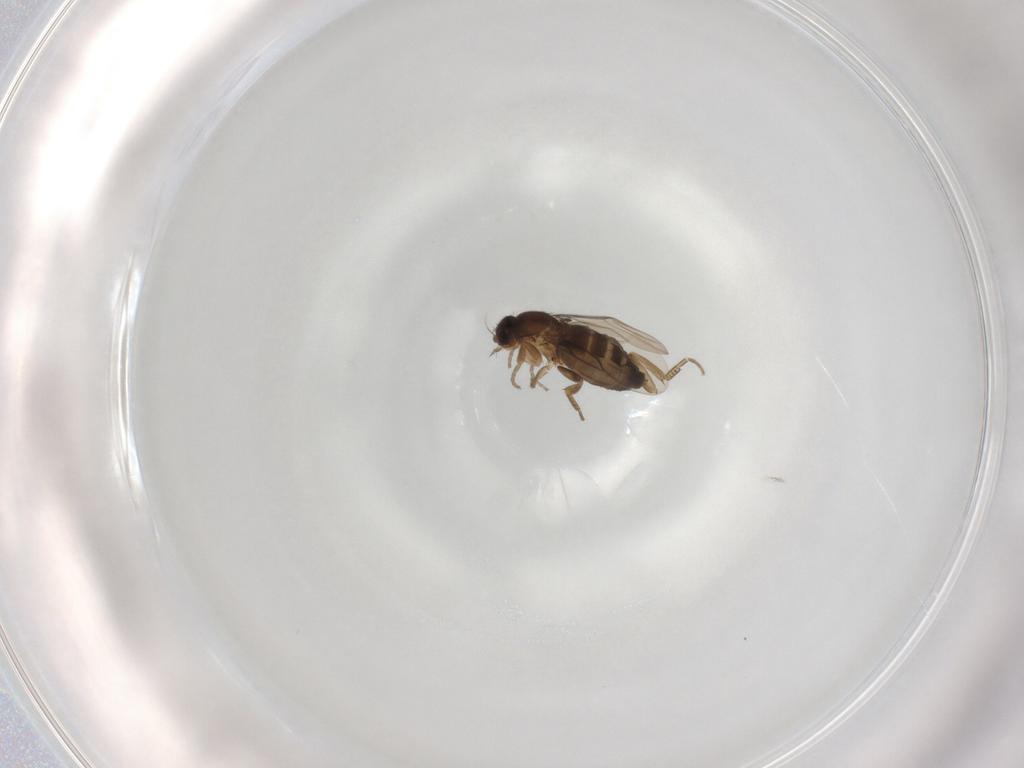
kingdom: Animalia
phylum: Arthropoda
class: Insecta
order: Diptera
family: Phoridae
